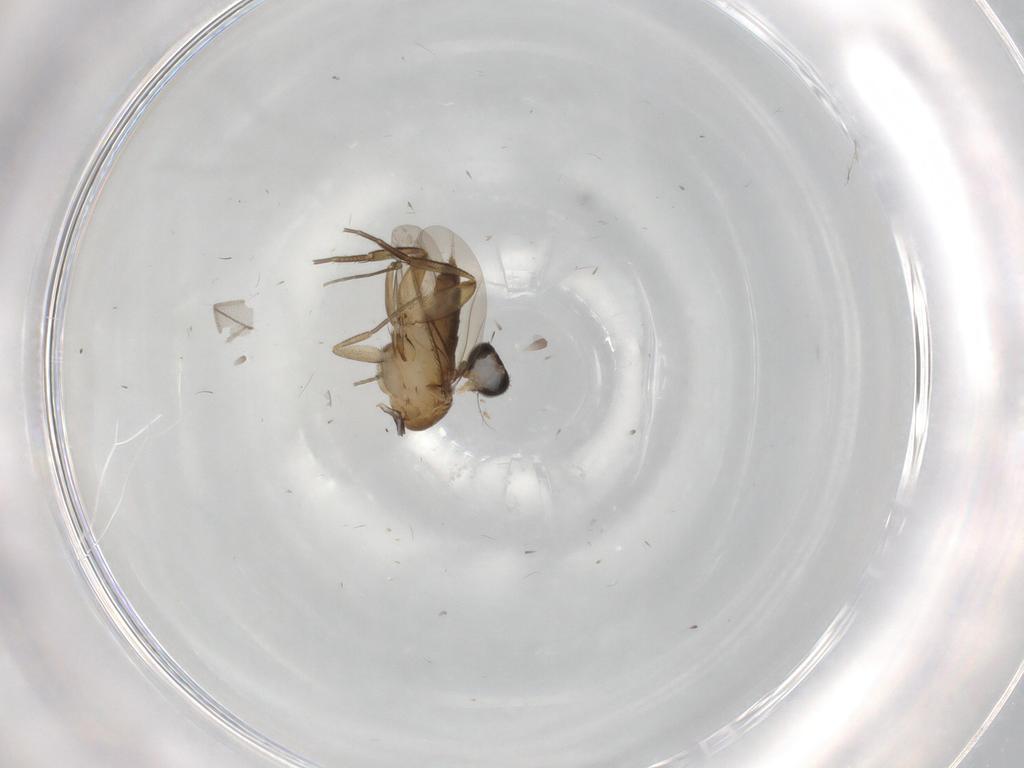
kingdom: Animalia
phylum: Arthropoda
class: Insecta
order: Diptera
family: Phoridae
